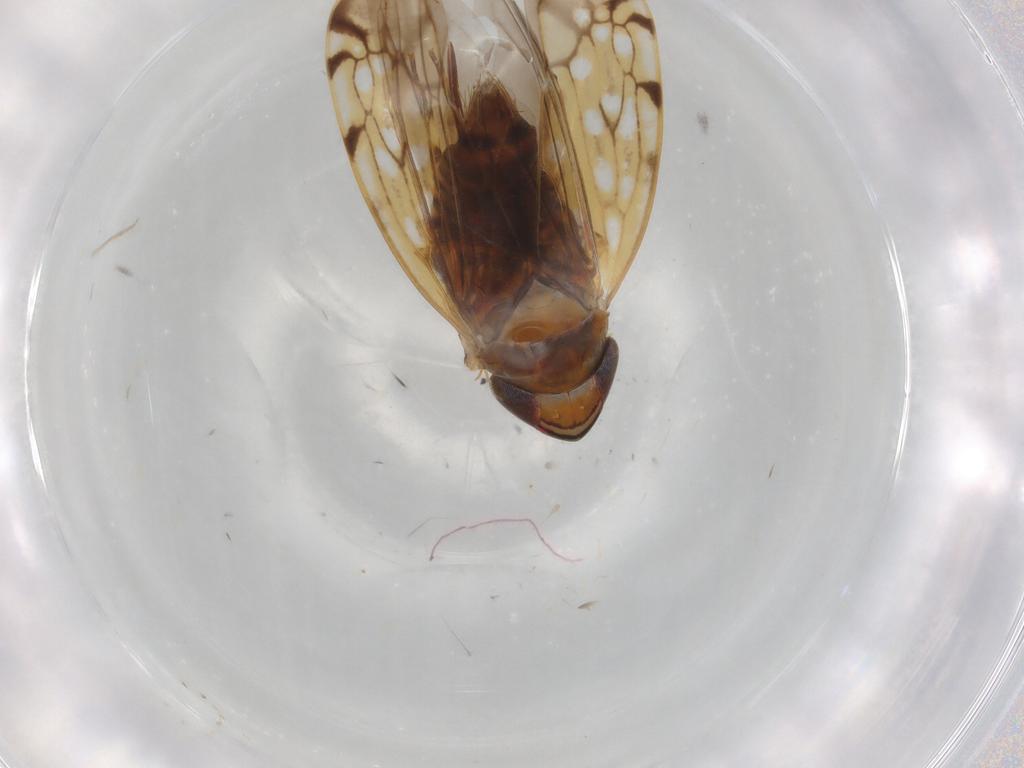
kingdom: Animalia
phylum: Arthropoda
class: Insecta
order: Hemiptera
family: Cicadellidae
